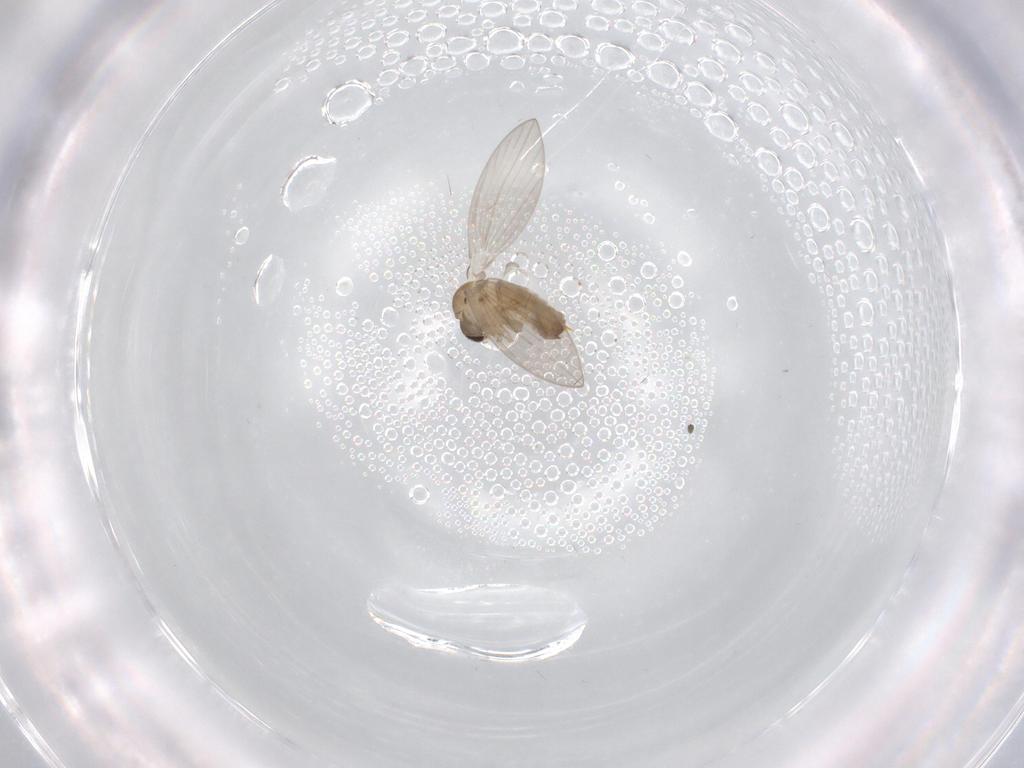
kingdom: Animalia
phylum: Arthropoda
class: Insecta
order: Diptera
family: Psychodidae
